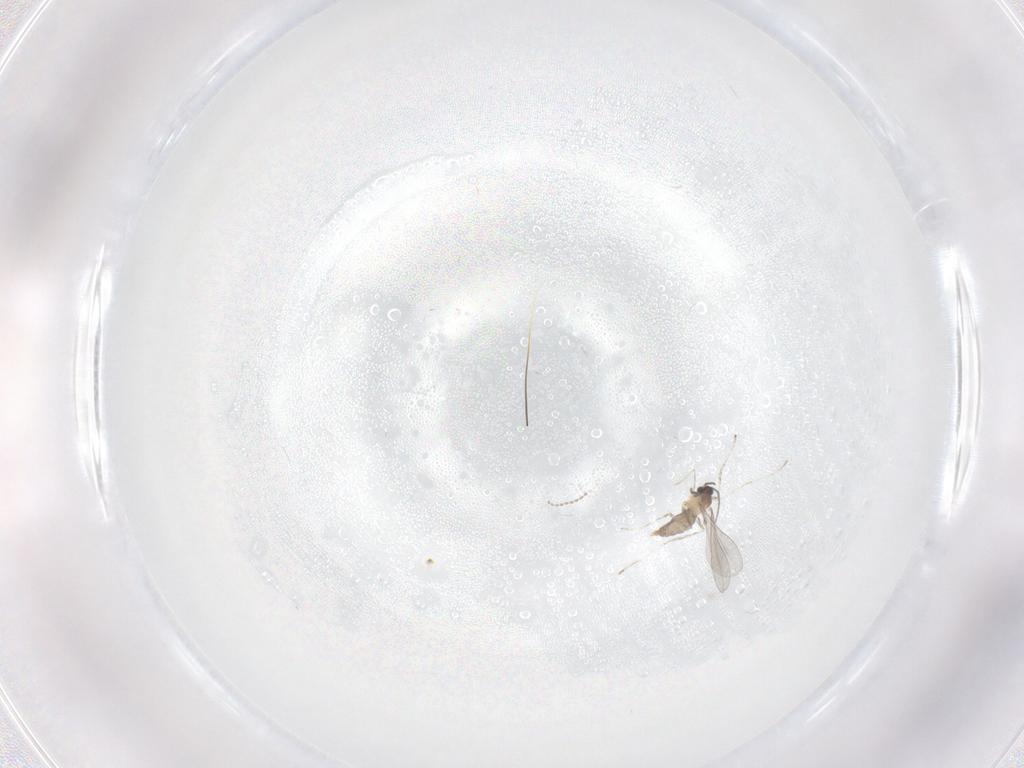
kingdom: Animalia
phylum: Arthropoda
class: Insecta
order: Diptera
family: Cecidomyiidae
